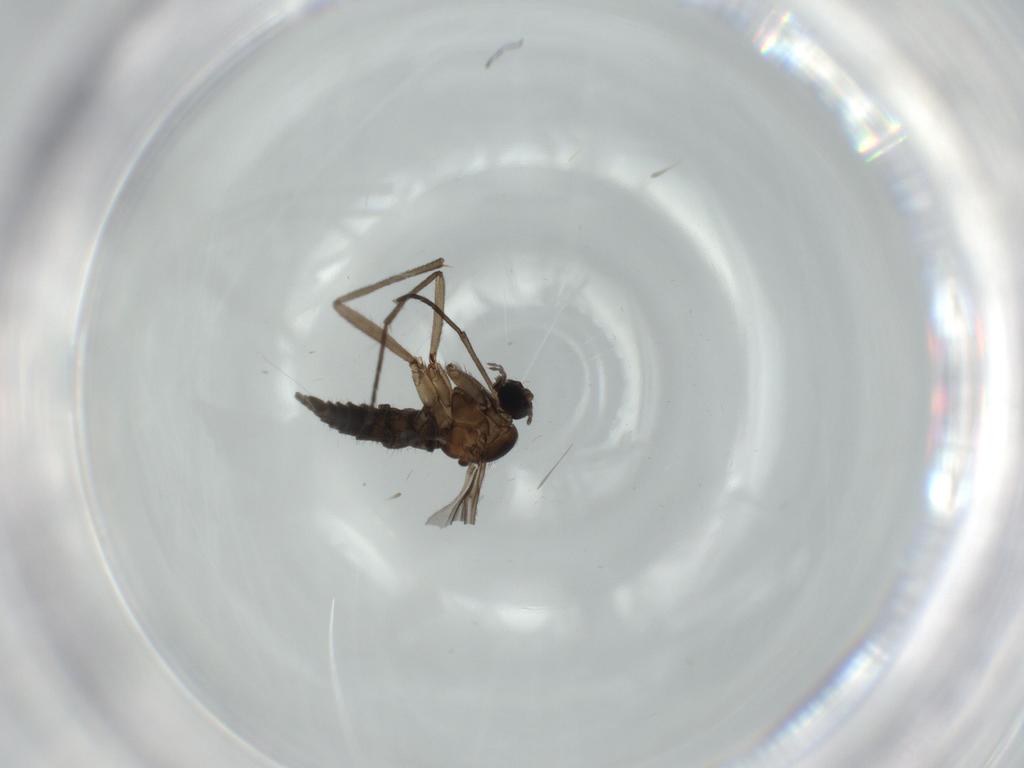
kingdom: Animalia
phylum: Arthropoda
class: Insecta
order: Diptera
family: Sciaridae
